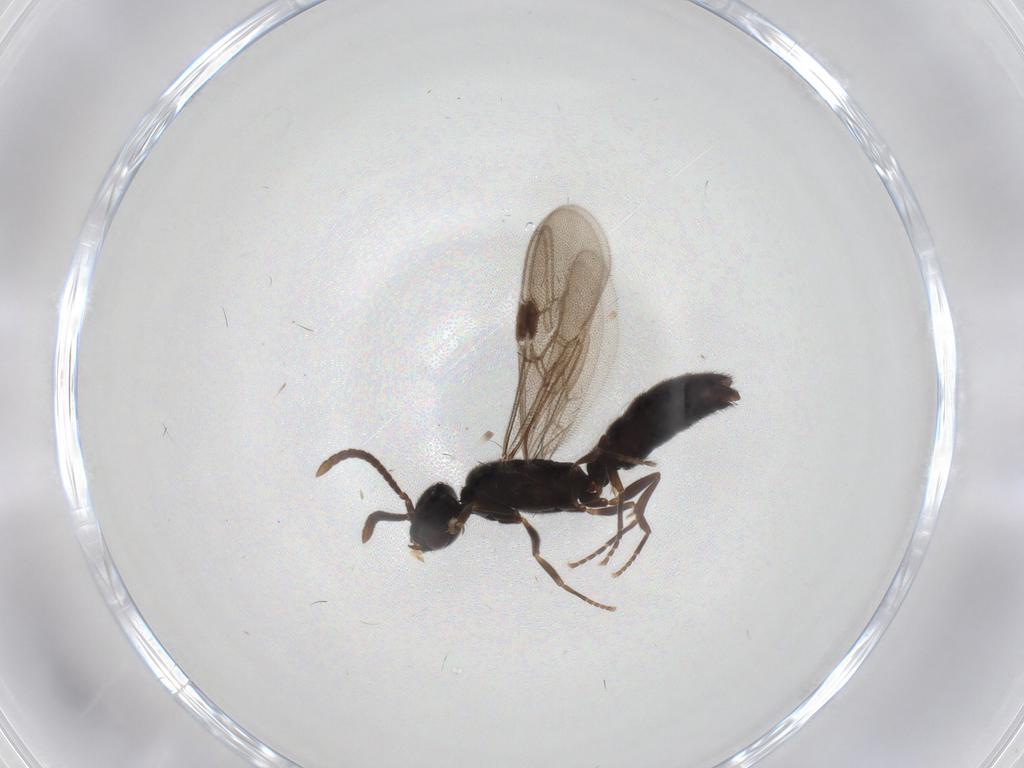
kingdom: Animalia
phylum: Arthropoda
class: Insecta
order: Hymenoptera
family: Formicidae
